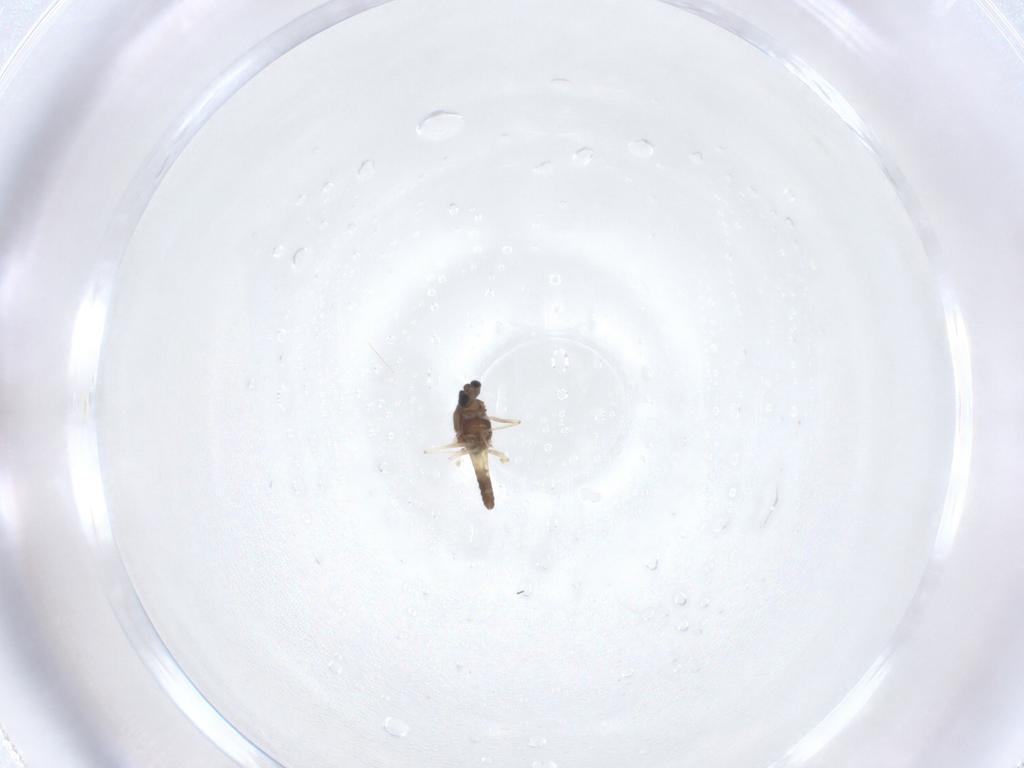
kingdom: Animalia
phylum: Arthropoda
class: Insecta
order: Diptera
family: Chironomidae
